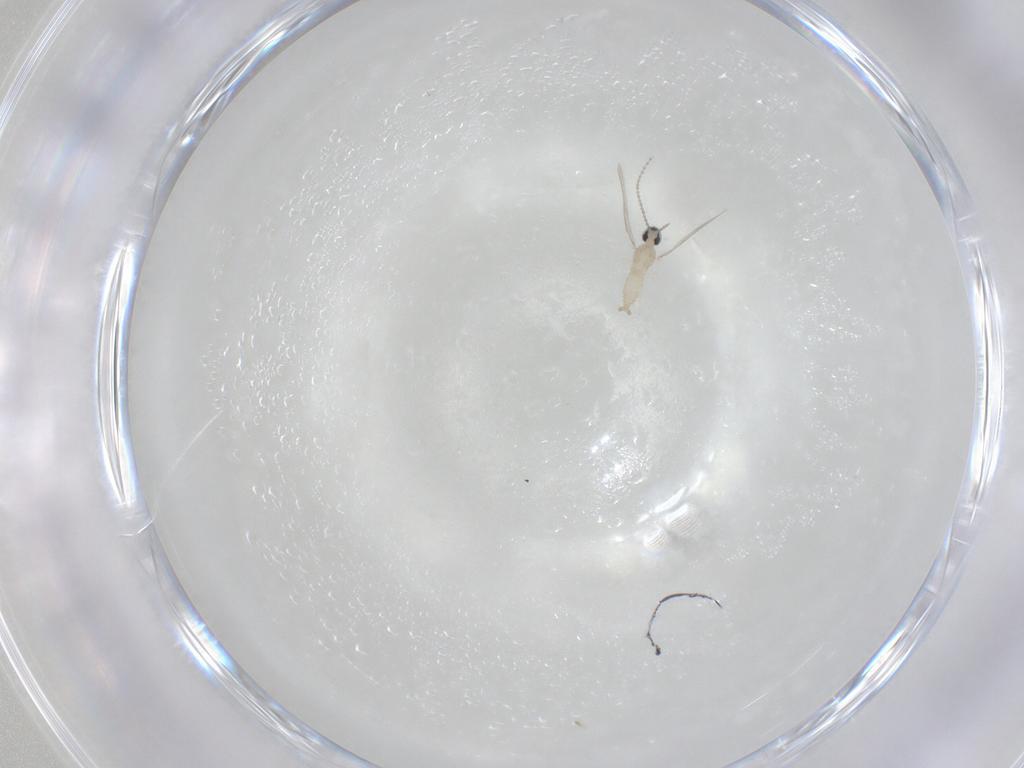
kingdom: Animalia
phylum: Arthropoda
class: Insecta
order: Diptera
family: Cecidomyiidae
